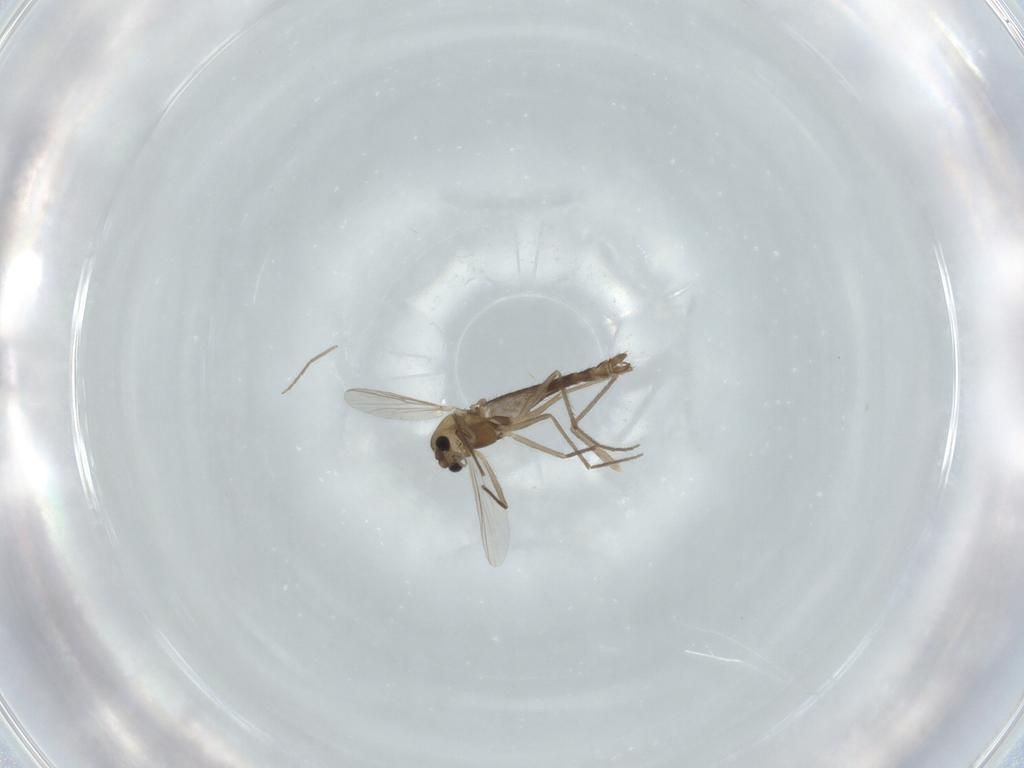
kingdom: Animalia
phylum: Arthropoda
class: Insecta
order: Diptera
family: Chironomidae
